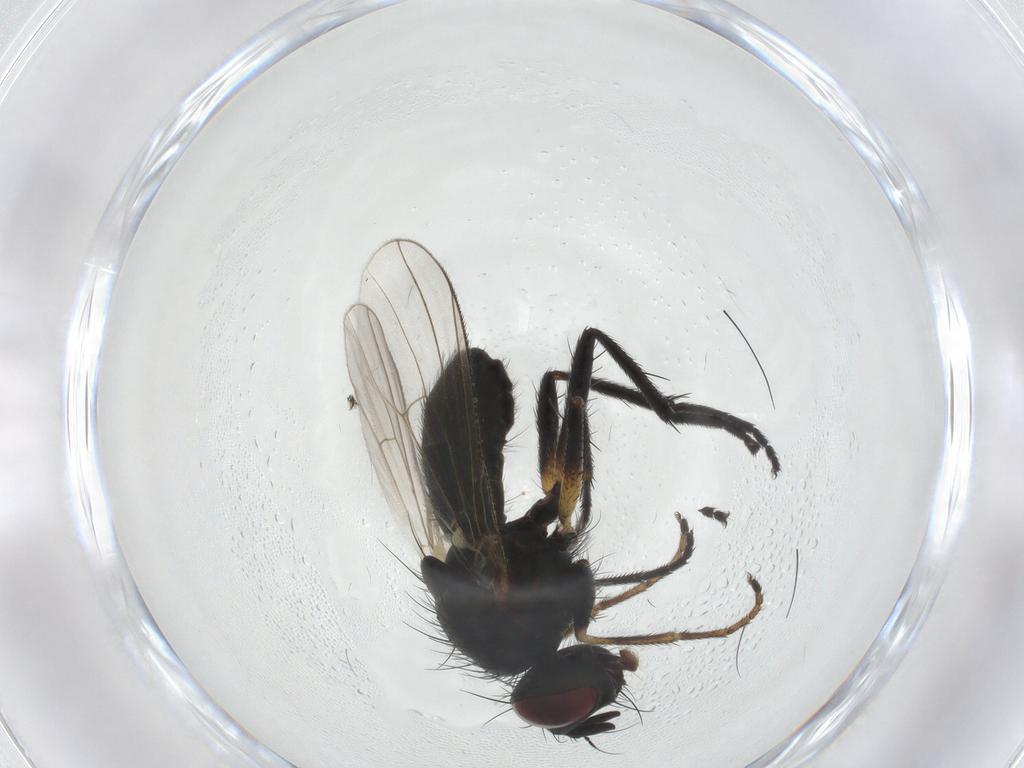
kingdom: Animalia
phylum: Arthropoda
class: Insecta
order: Diptera
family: Muscidae
